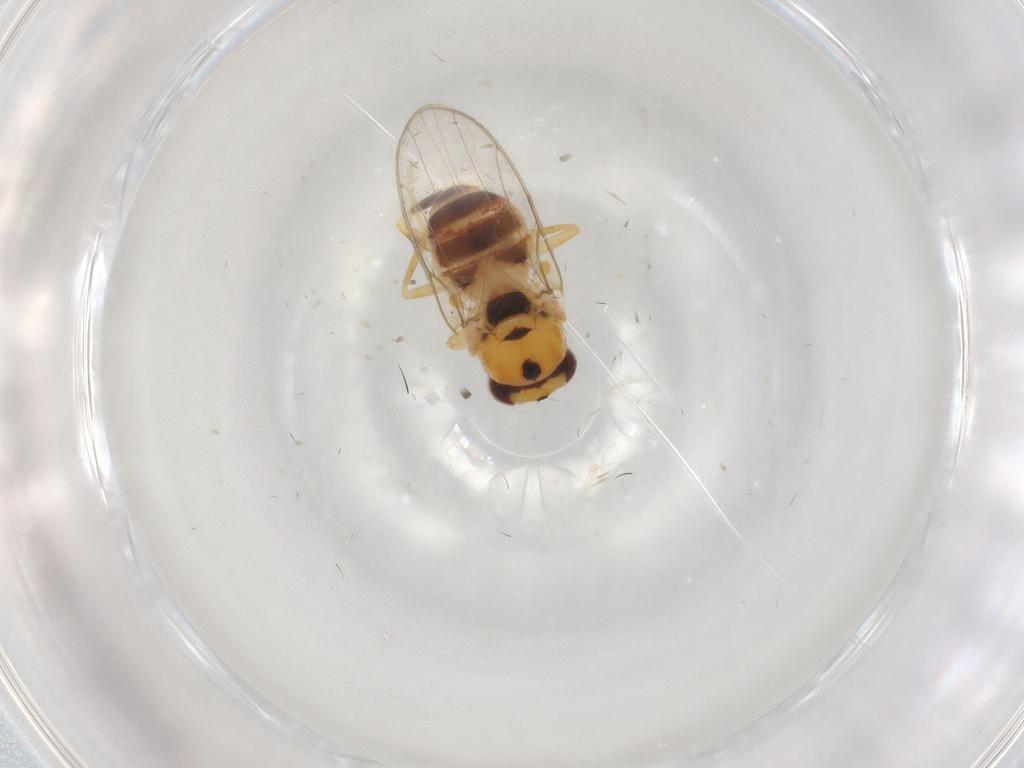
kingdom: Animalia
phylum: Arthropoda
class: Insecta
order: Diptera
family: Chloropidae
